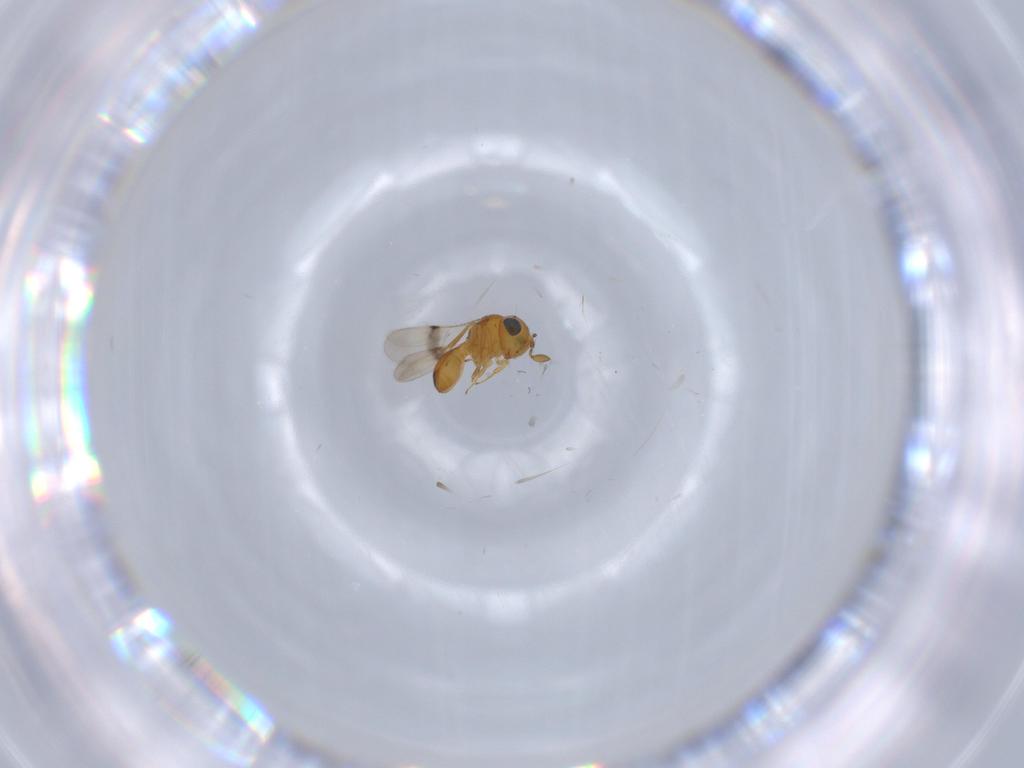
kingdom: Animalia
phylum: Arthropoda
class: Insecta
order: Hymenoptera
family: Scelionidae
